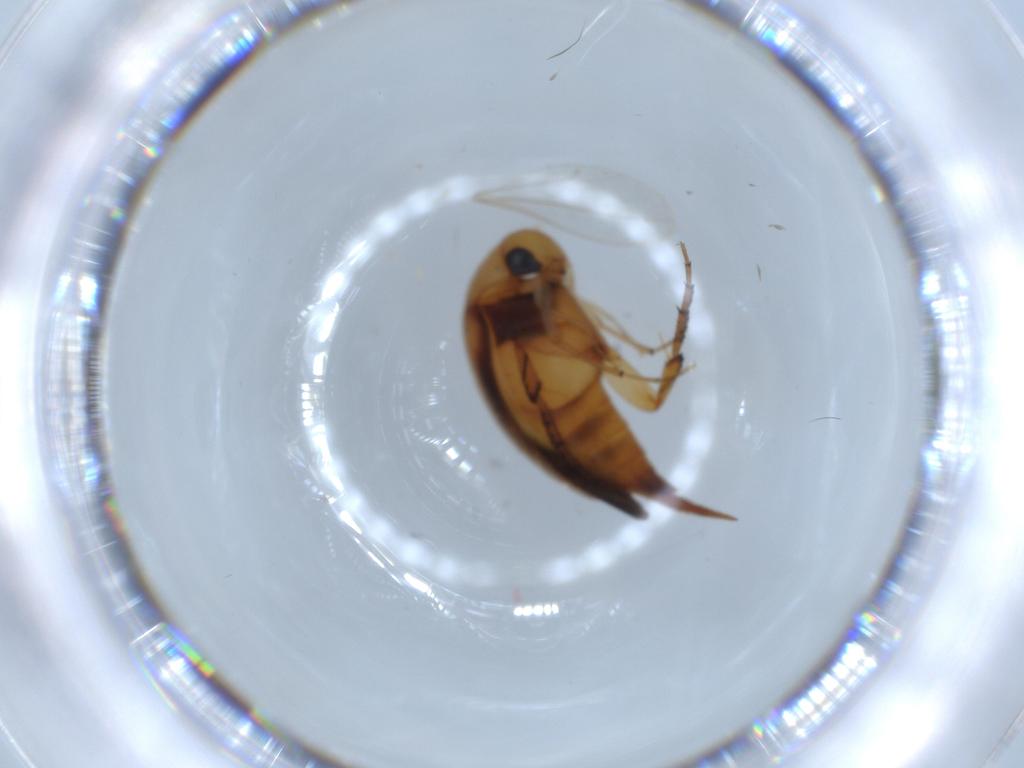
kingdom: Animalia
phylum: Arthropoda
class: Insecta
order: Coleoptera
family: Mordellidae
